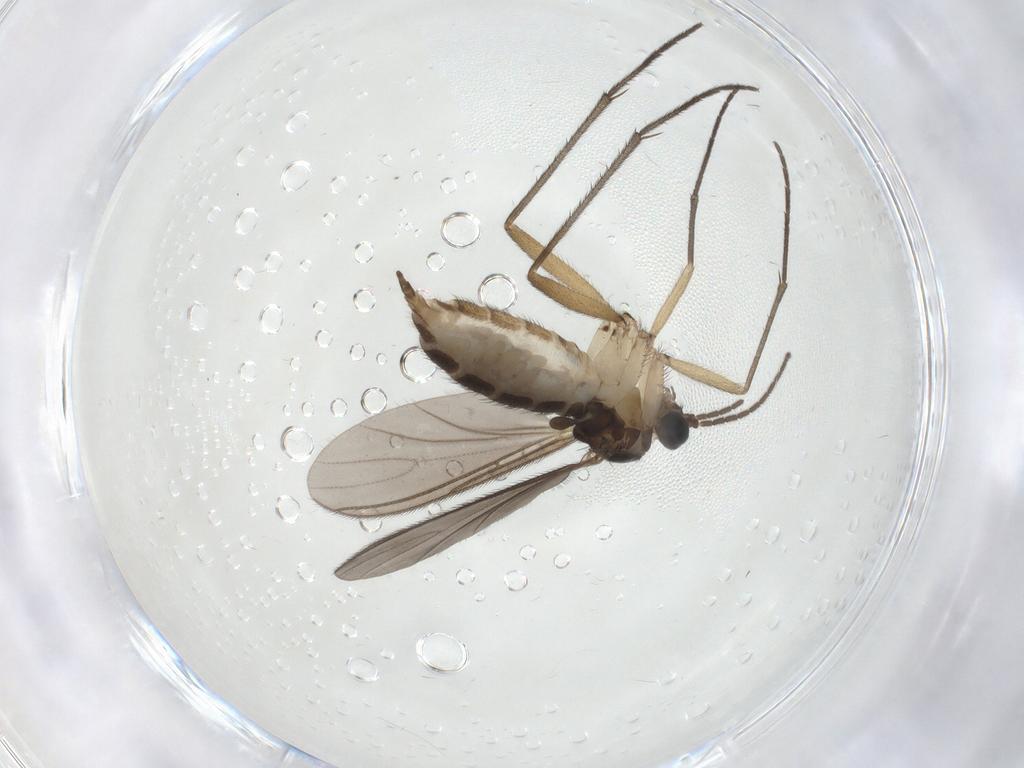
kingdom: Animalia
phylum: Arthropoda
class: Insecta
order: Diptera
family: Sciaridae
